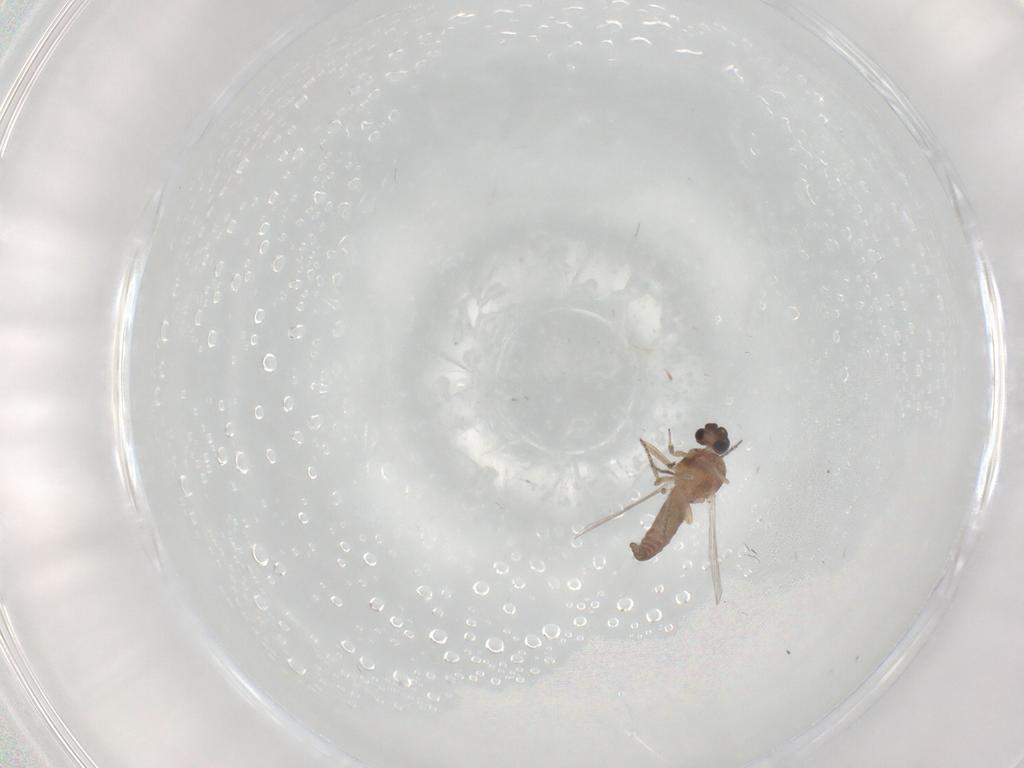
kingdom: Animalia
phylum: Arthropoda
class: Insecta
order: Diptera
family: Ceratopogonidae
